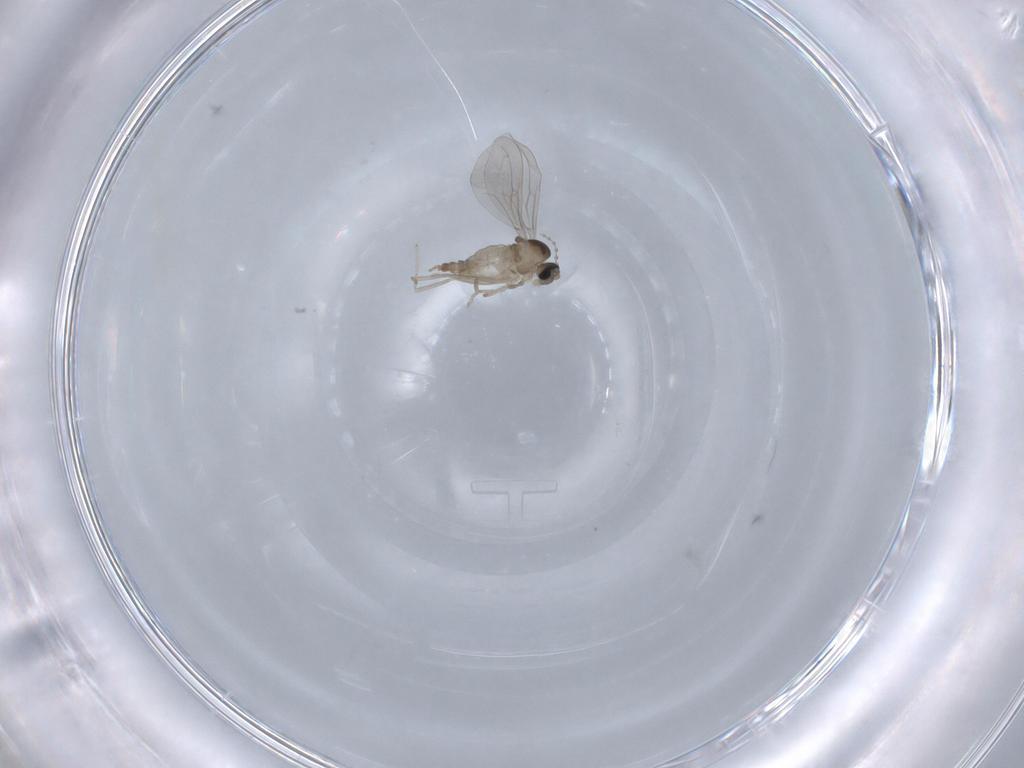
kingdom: Animalia
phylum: Arthropoda
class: Insecta
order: Diptera
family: Cecidomyiidae
